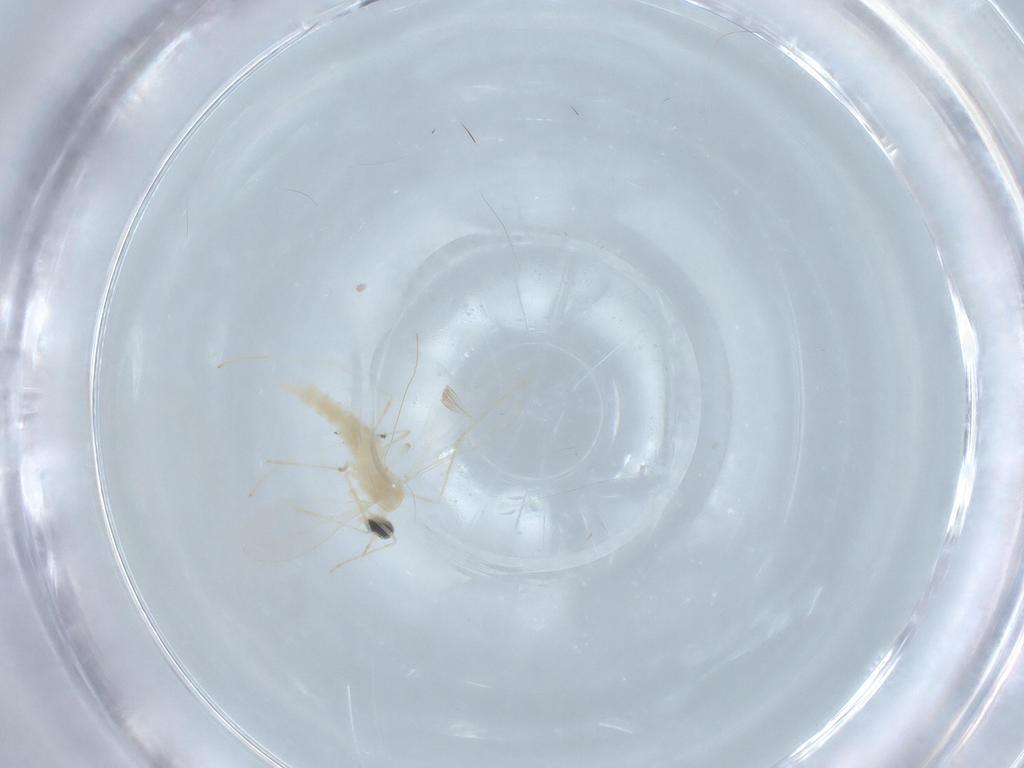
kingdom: Animalia
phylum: Arthropoda
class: Insecta
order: Diptera
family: Cecidomyiidae
